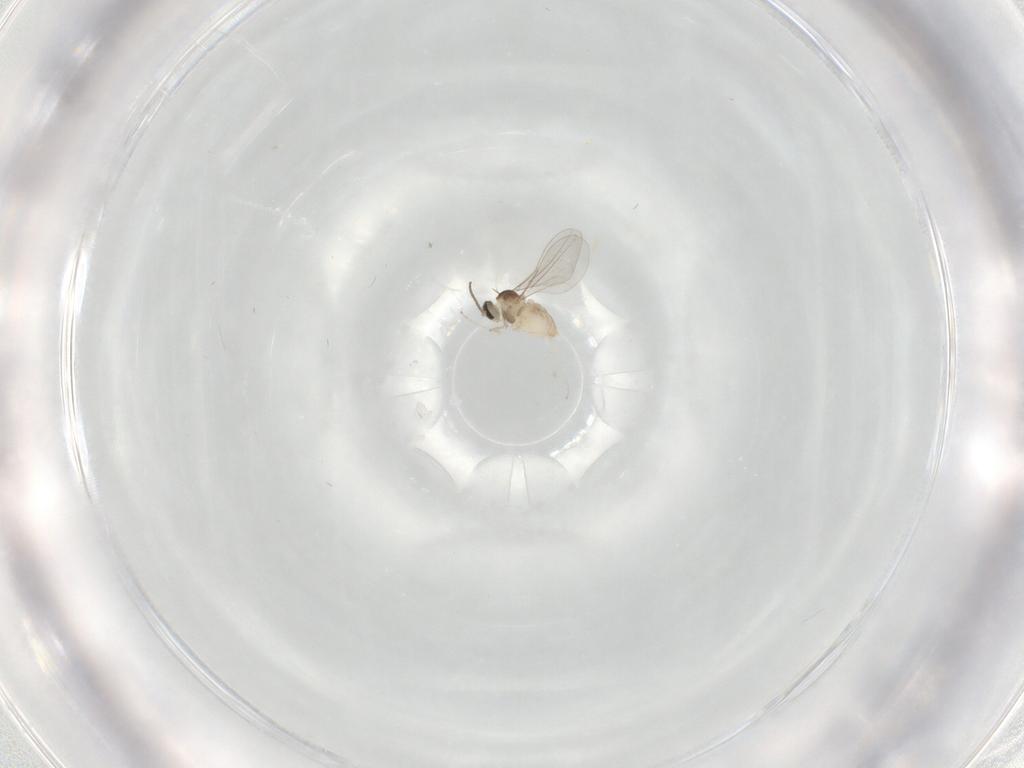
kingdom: Animalia
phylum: Arthropoda
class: Insecta
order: Diptera
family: Cecidomyiidae
